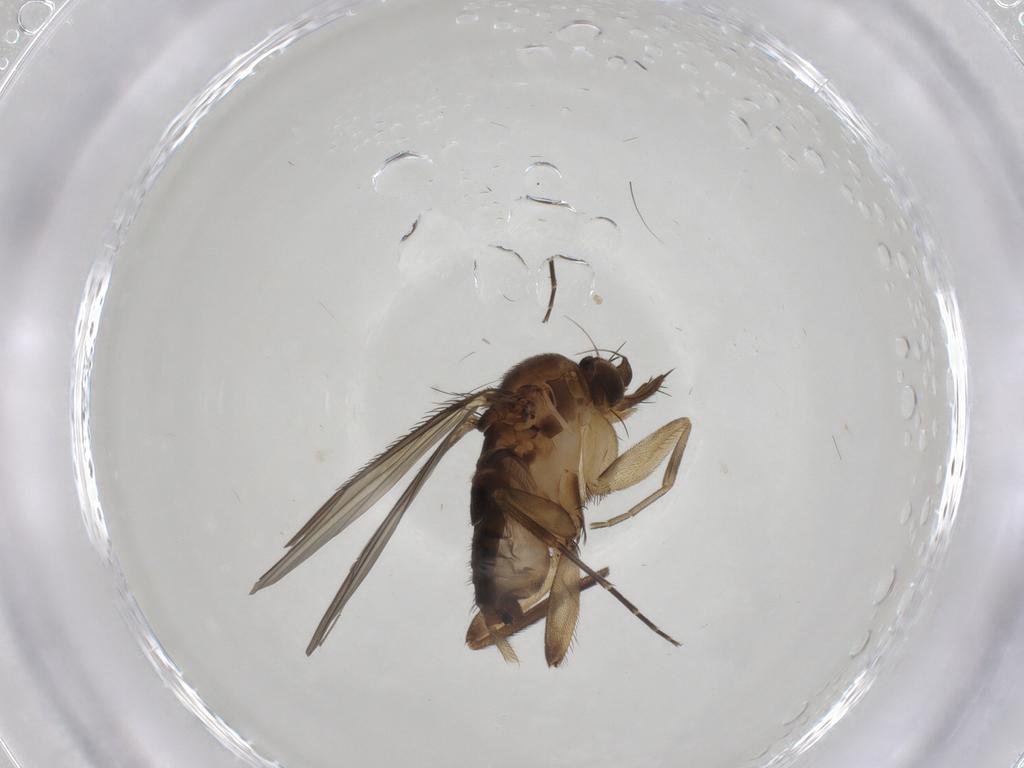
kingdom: Animalia
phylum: Arthropoda
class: Insecta
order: Diptera
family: Phoridae
